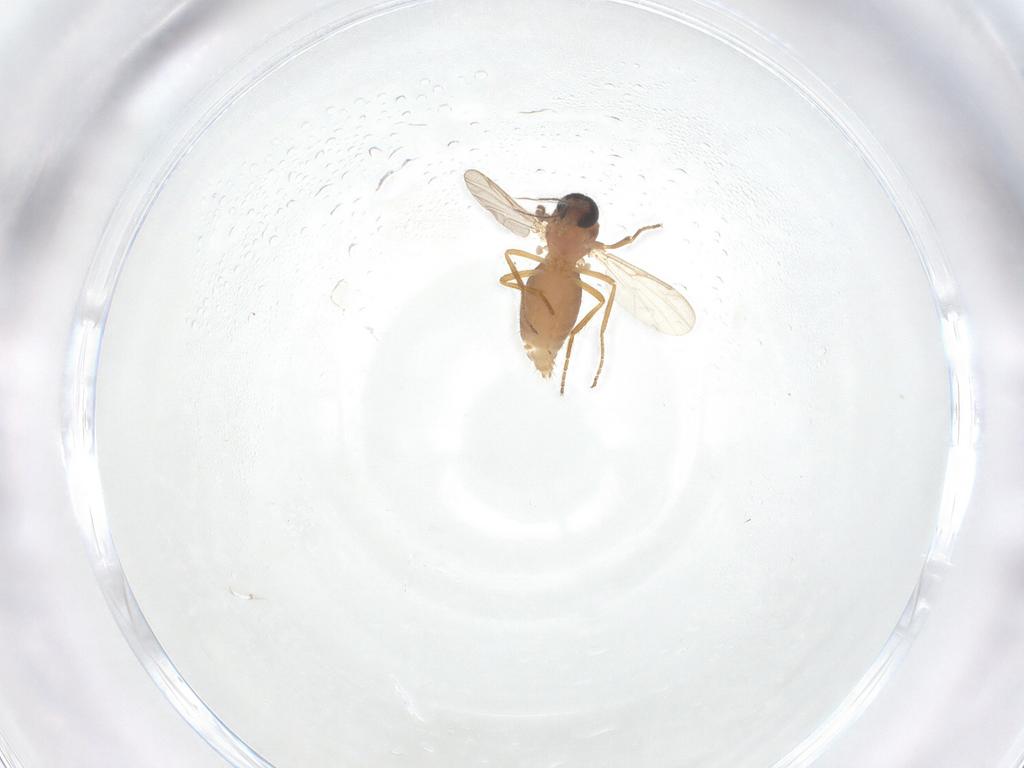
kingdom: Animalia
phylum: Arthropoda
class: Insecta
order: Diptera
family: Ceratopogonidae
